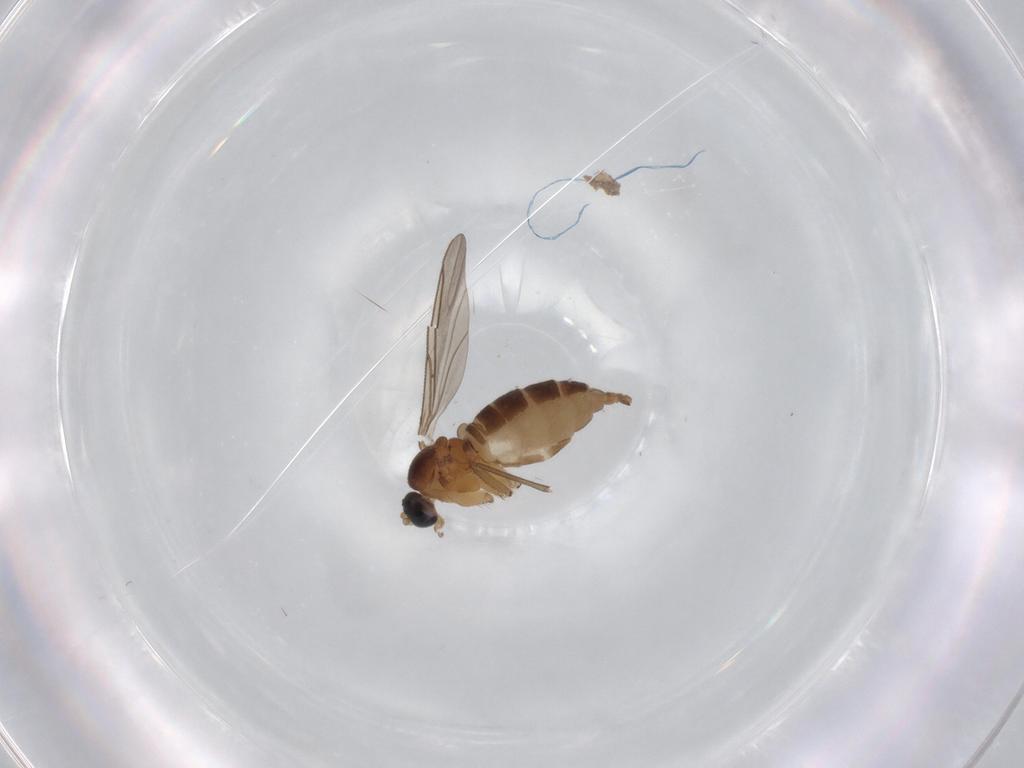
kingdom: Animalia
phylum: Arthropoda
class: Insecta
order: Diptera
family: Sciaridae
